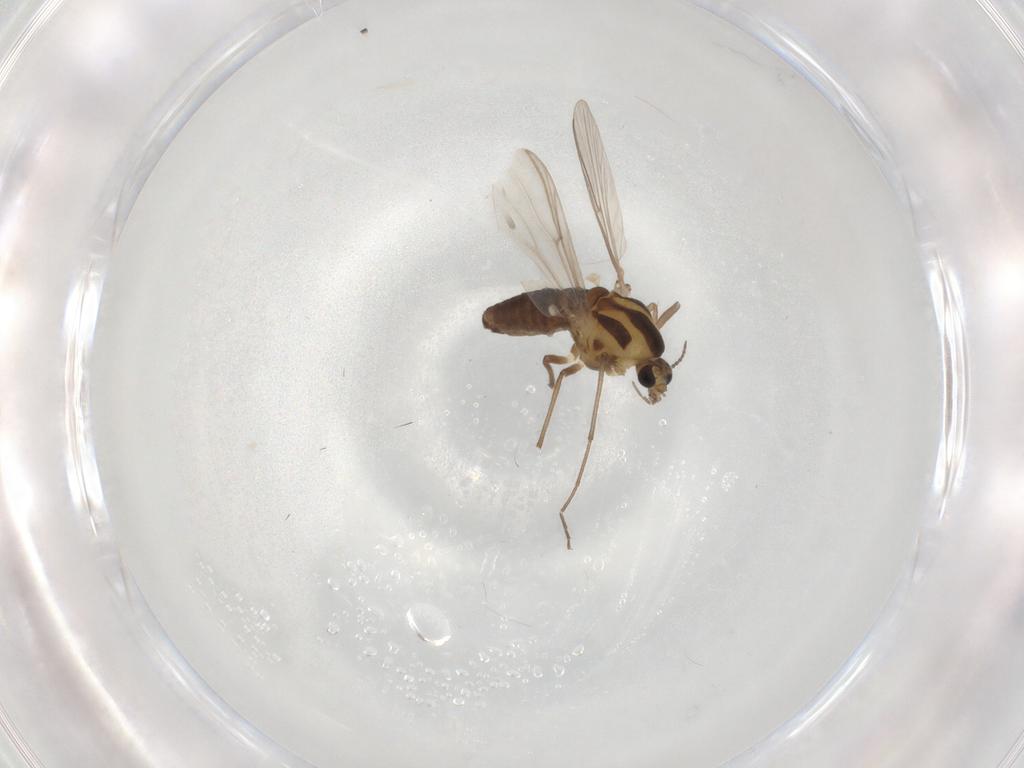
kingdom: Animalia
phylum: Arthropoda
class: Insecta
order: Diptera
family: Chironomidae
